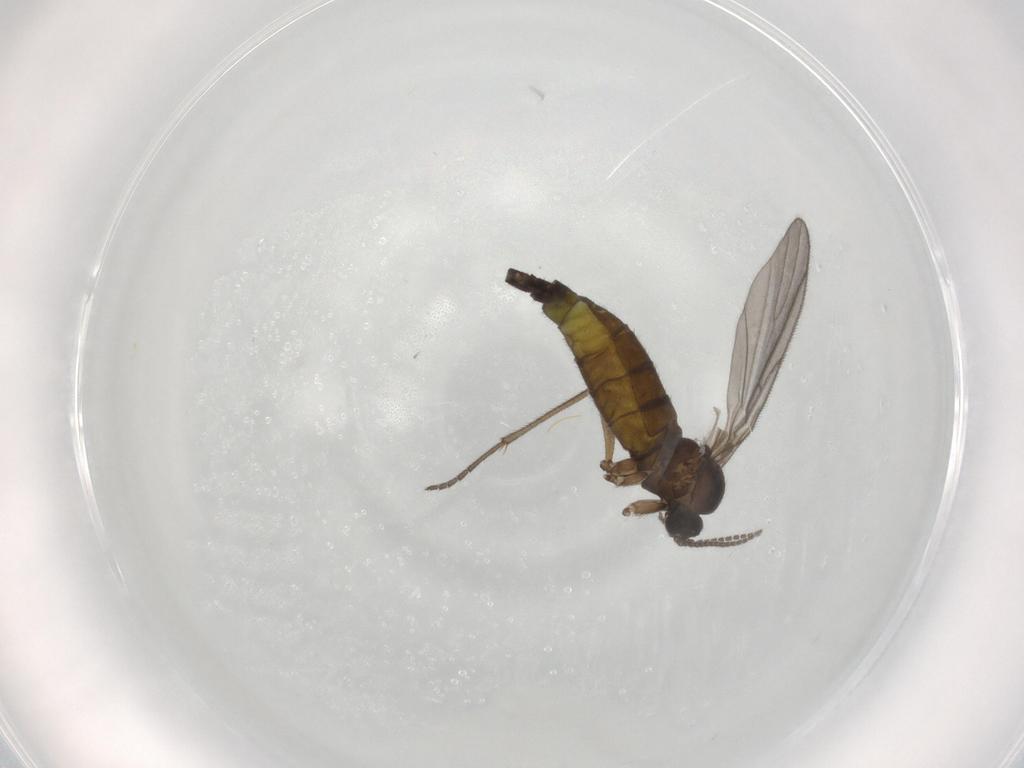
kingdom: Animalia
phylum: Arthropoda
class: Insecta
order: Diptera
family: Sciaridae
